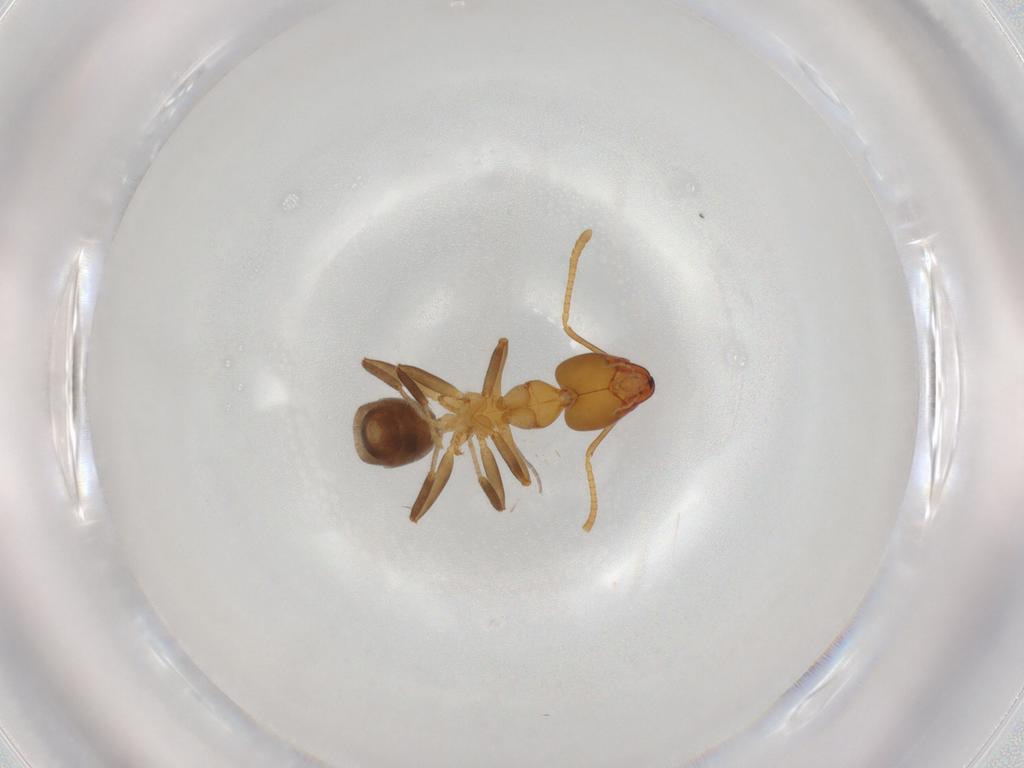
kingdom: Animalia
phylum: Arthropoda
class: Insecta
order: Hymenoptera
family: Formicidae
